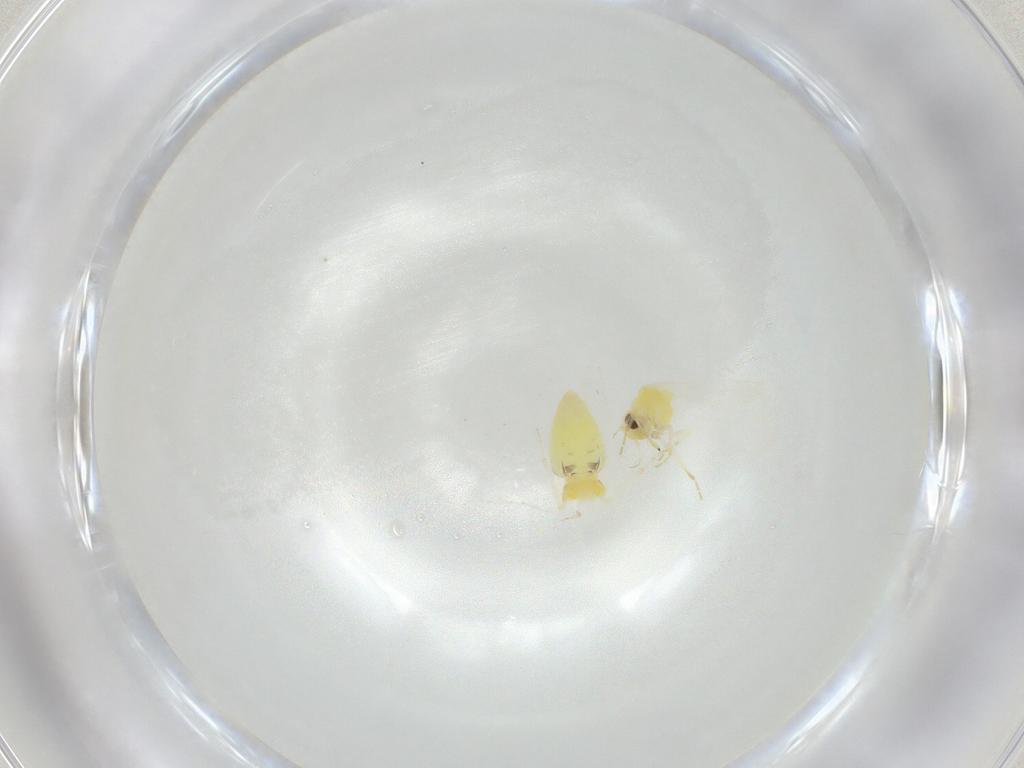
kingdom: Animalia
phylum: Arthropoda
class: Insecta
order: Hemiptera
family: Aleyrodidae
